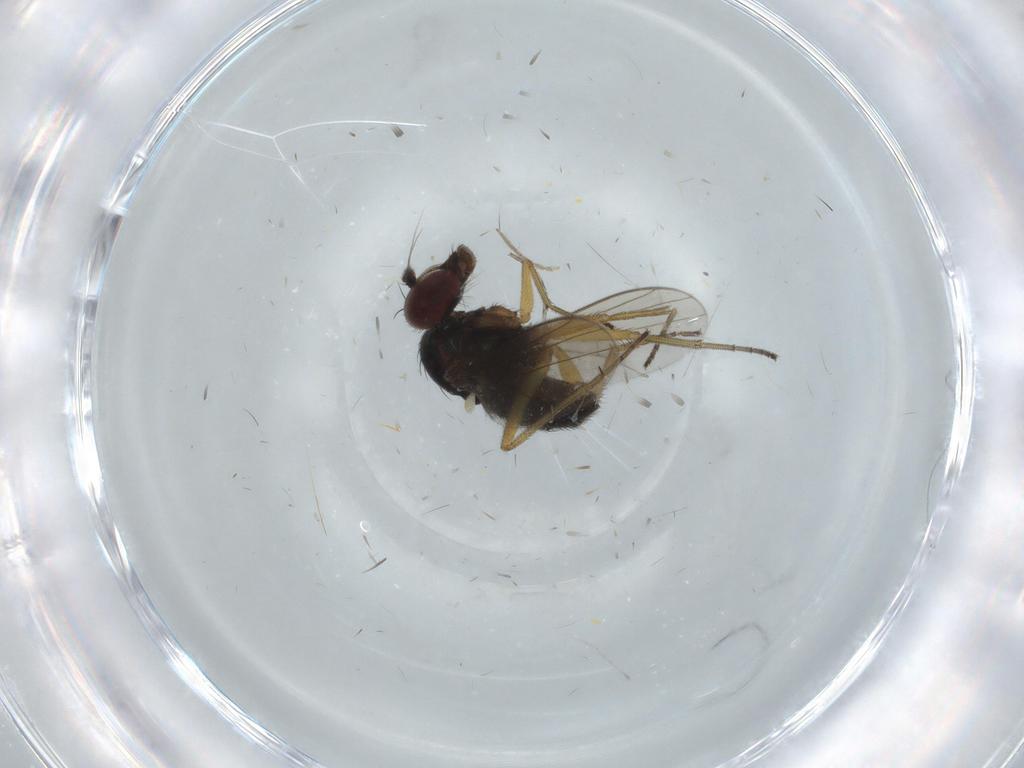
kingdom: Animalia
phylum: Arthropoda
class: Insecta
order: Diptera
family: Dolichopodidae
